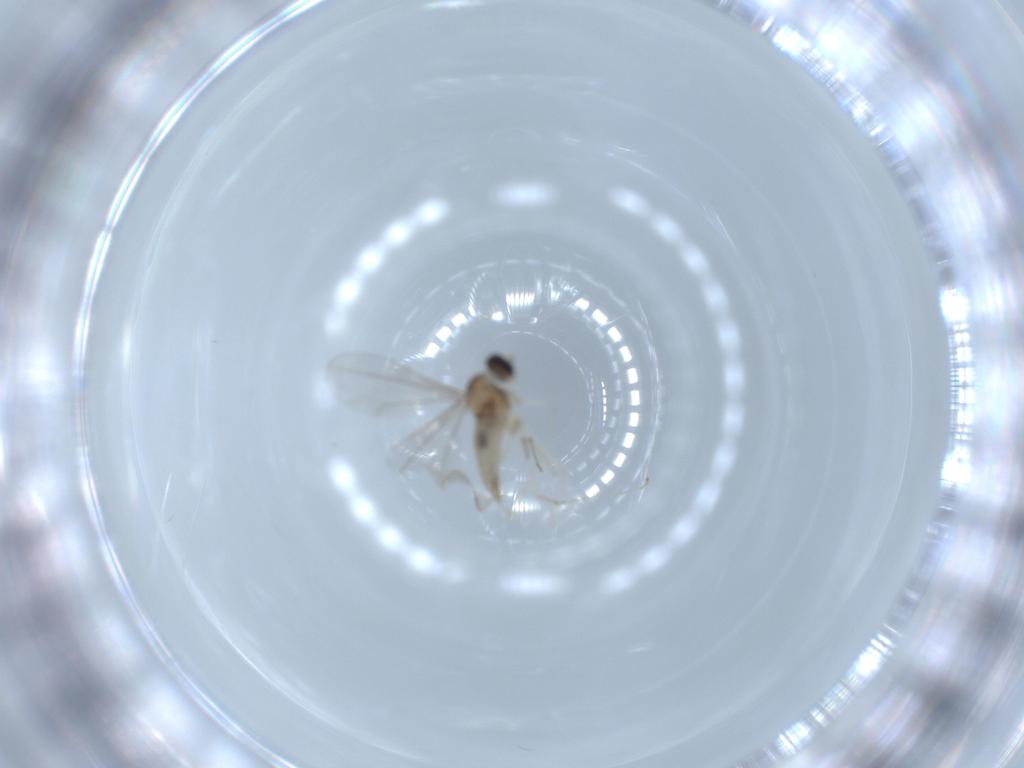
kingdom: Animalia
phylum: Arthropoda
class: Insecta
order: Diptera
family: Cecidomyiidae
